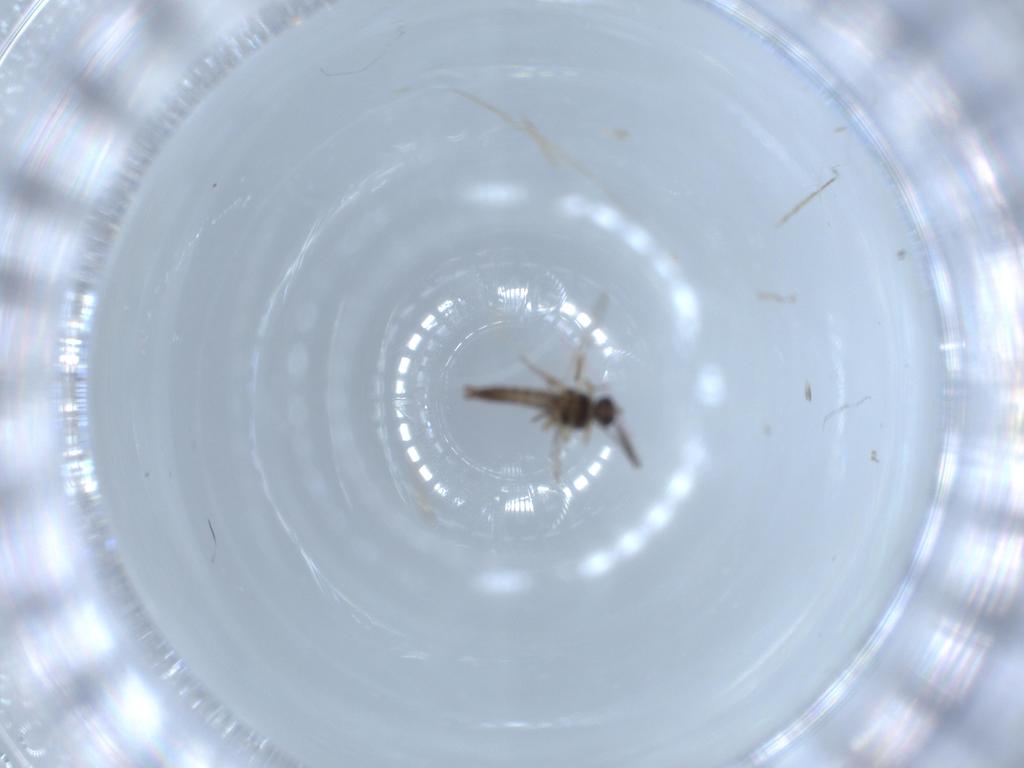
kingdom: Animalia
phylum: Arthropoda
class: Insecta
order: Diptera
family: Ceratopogonidae
